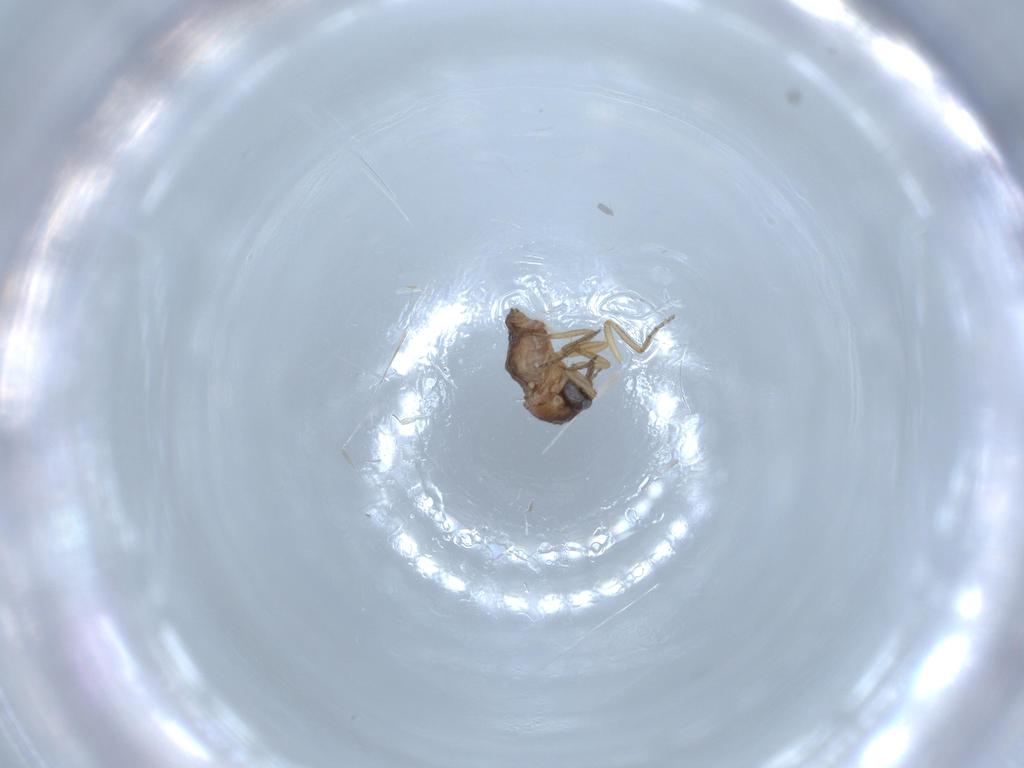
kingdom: Animalia
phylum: Arthropoda
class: Insecta
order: Diptera
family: Ceratopogonidae
